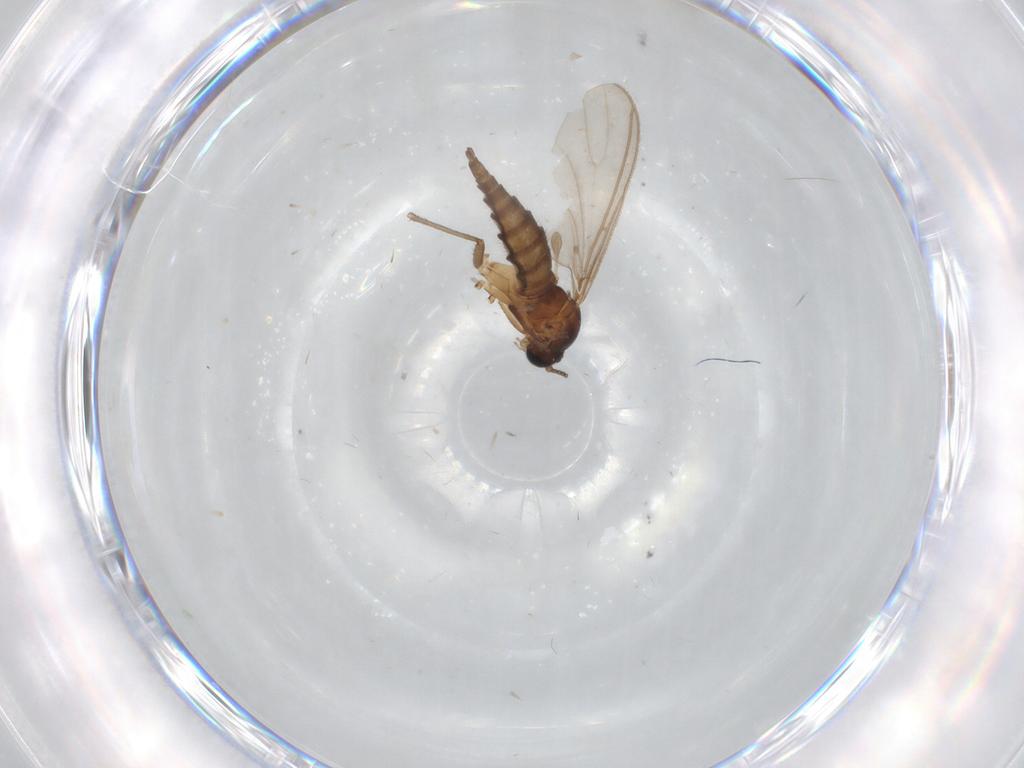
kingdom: Animalia
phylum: Arthropoda
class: Insecta
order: Diptera
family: Sciaridae
